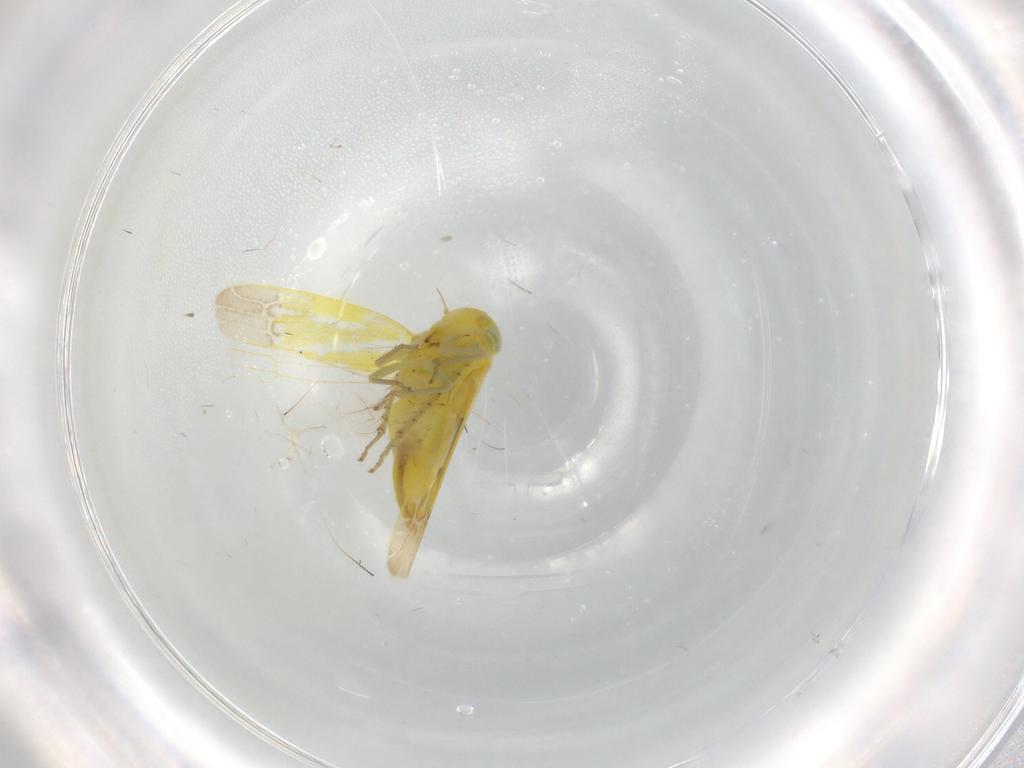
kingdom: Animalia
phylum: Arthropoda
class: Insecta
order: Hemiptera
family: Cicadellidae
